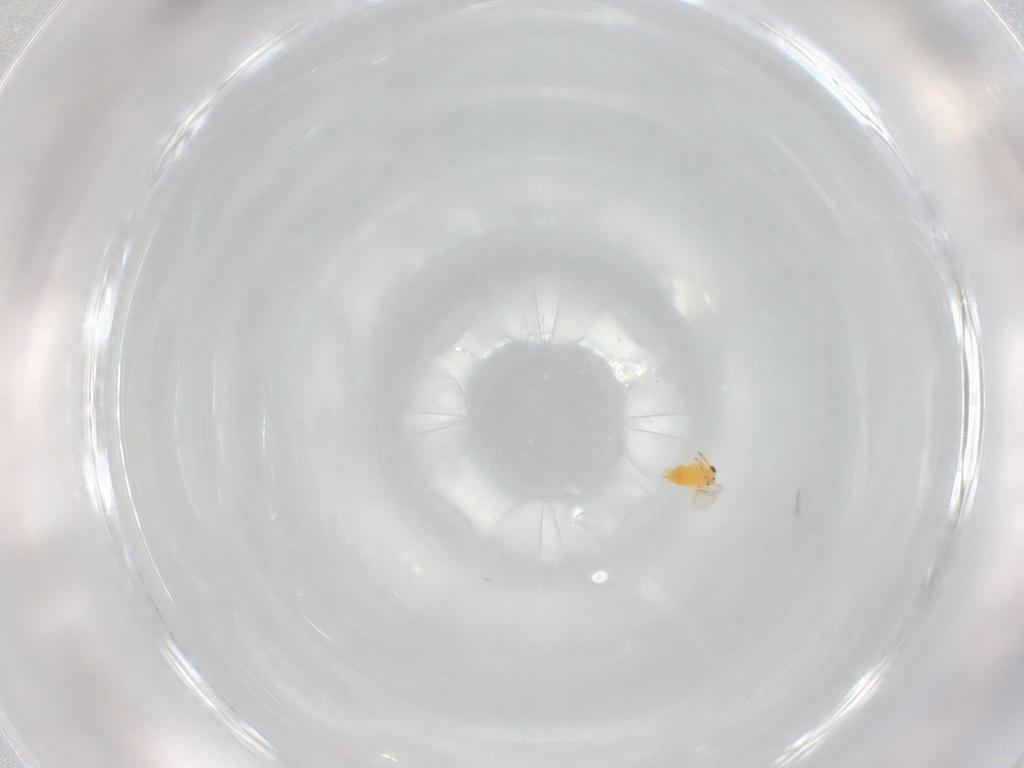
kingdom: Animalia
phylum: Arthropoda
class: Insecta
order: Hymenoptera
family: Aphelinidae
